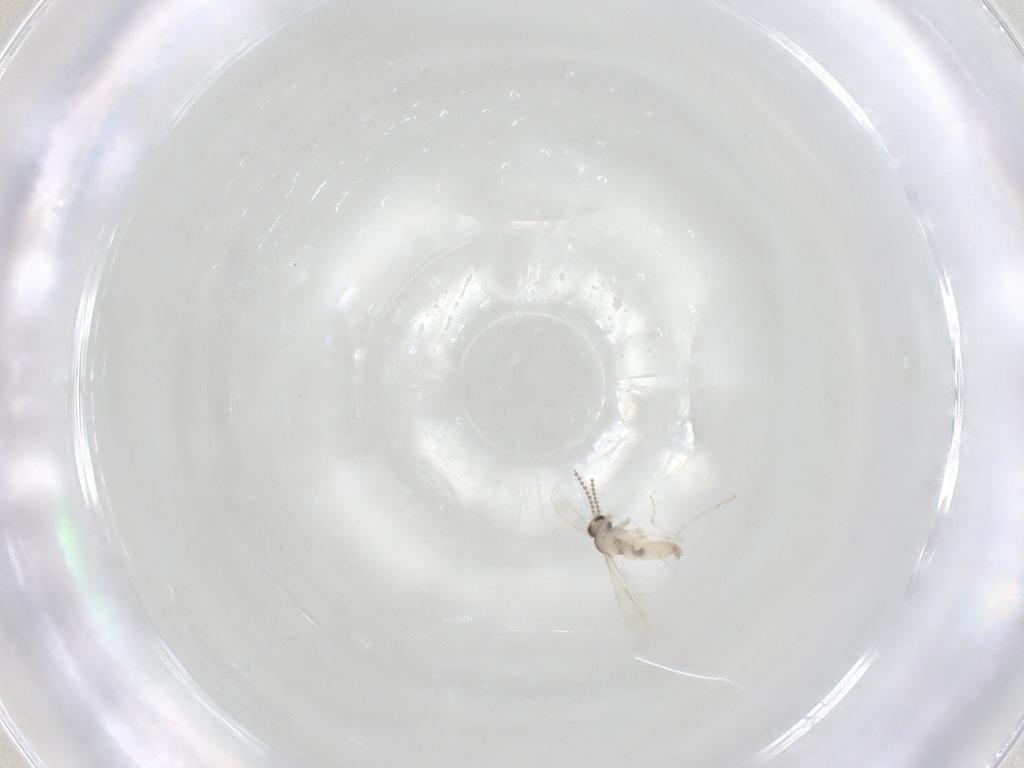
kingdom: Animalia
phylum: Arthropoda
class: Insecta
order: Diptera
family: Cecidomyiidae
